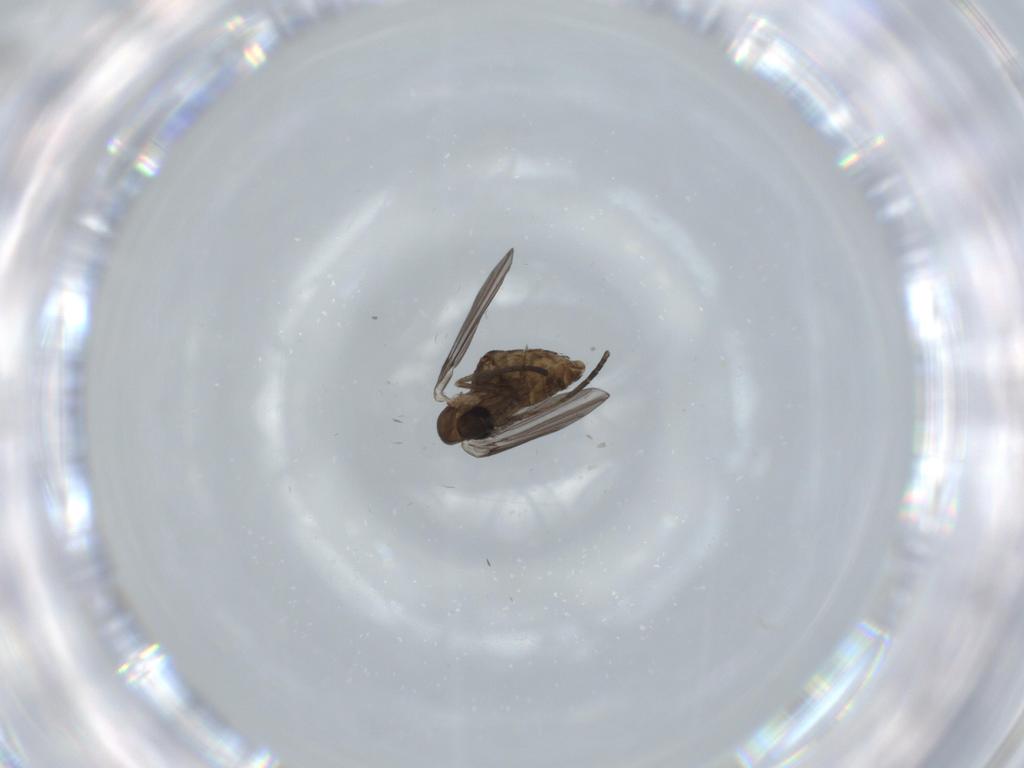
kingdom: Animalia
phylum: Arthropoda
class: Insecta
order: Diptera
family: Psychodidae
